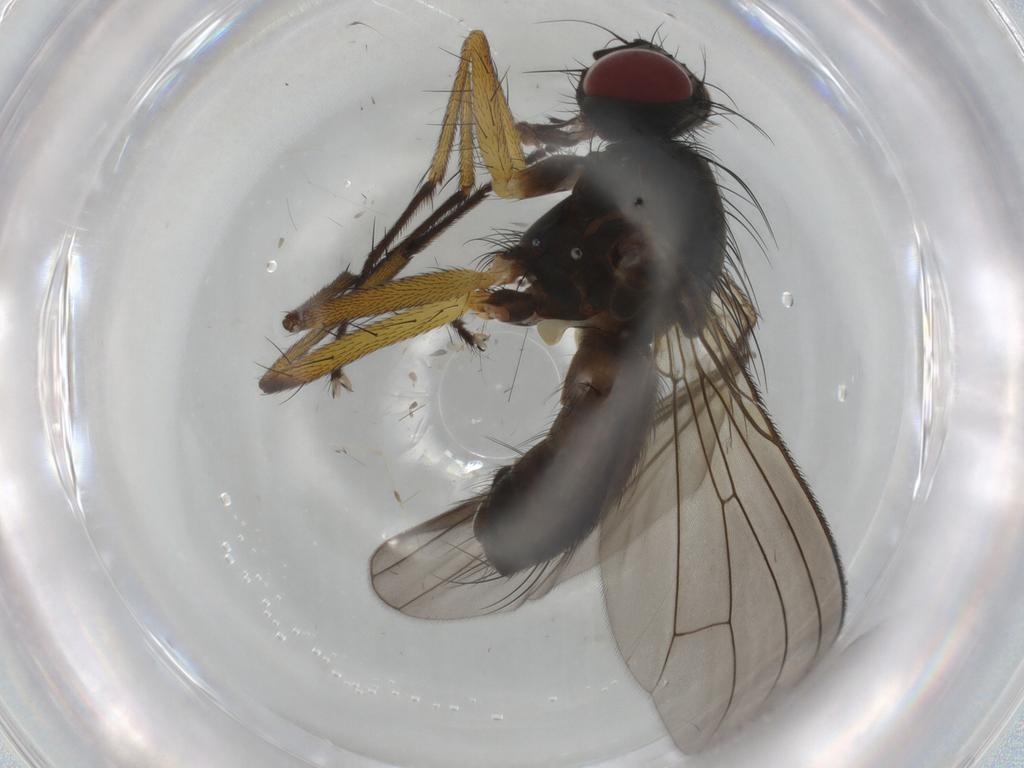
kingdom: Animalia
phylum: Arthropoda
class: Insecta
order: Diptera
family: Muscidae
